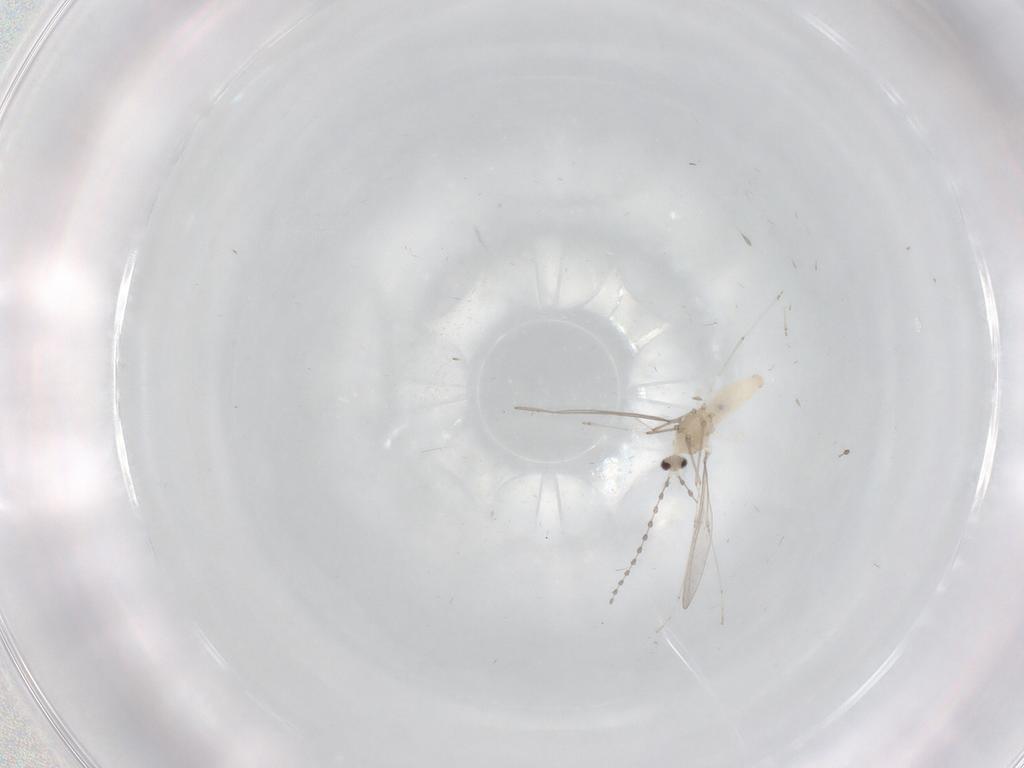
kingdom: Animalia
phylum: Arthropoda
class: Insecta
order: Diptera
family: Cecidomyiidae
